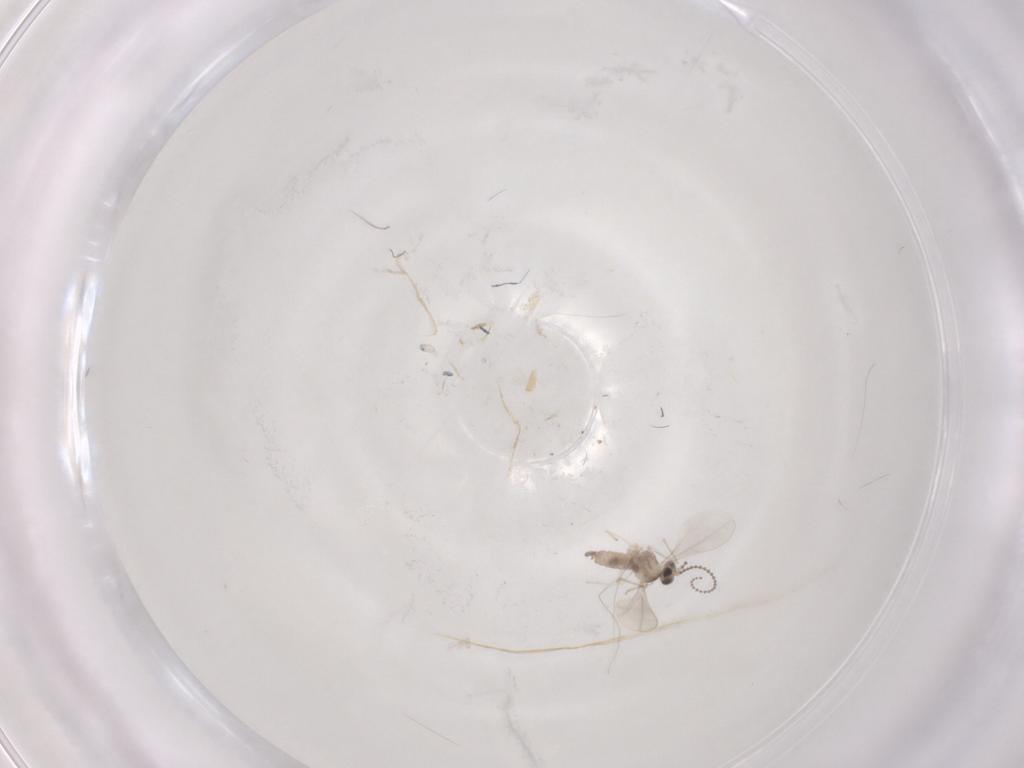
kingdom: Animalia
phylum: Arthropoda
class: Insecta
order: Diptera
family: Cecidomyiidae
